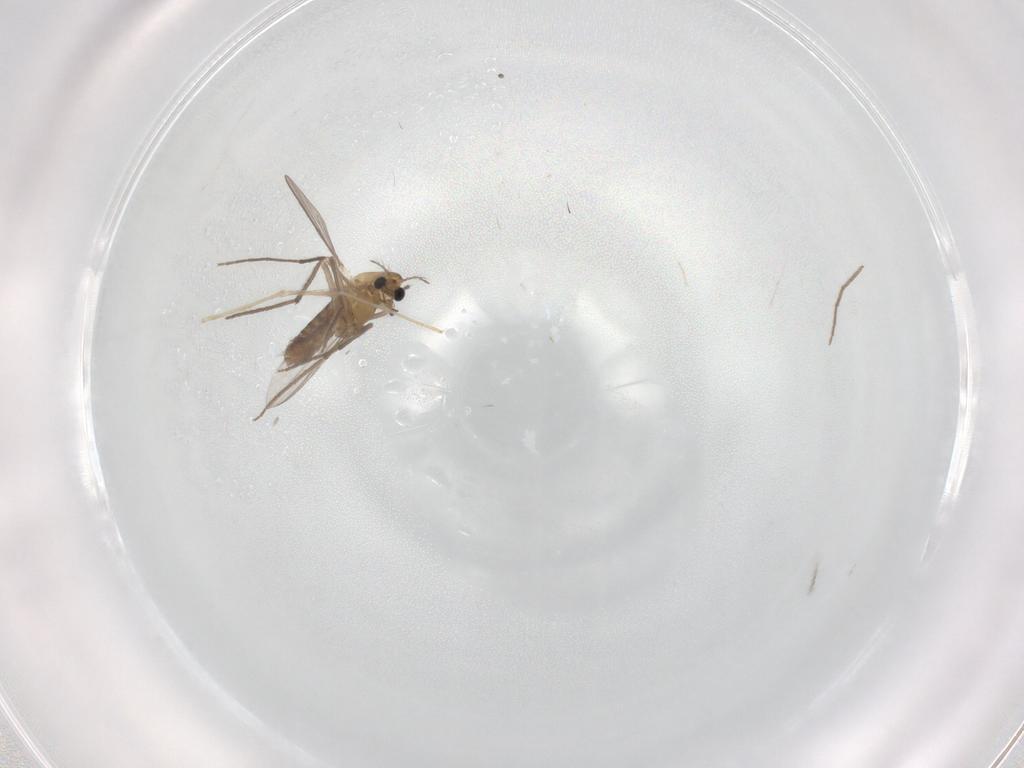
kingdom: Animalia
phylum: Arthropoda
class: Insecta
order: Diptera
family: Chironomidae
